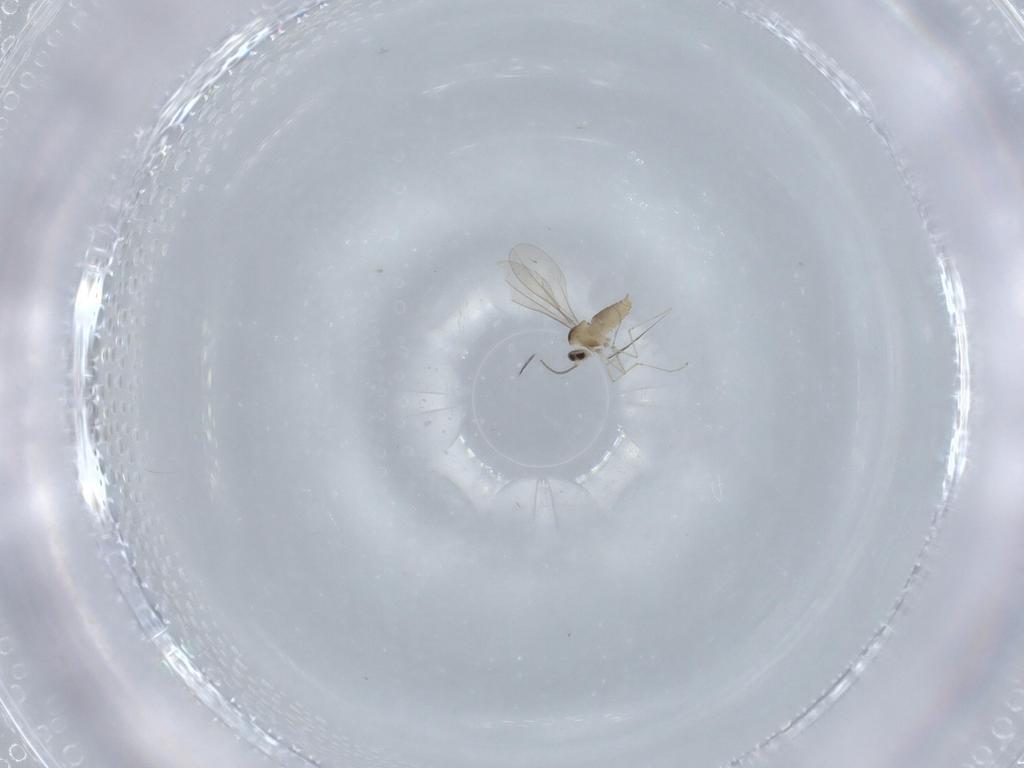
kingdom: Animalia
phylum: Arthropoda
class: Insecta
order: Diptera
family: Cecidomyiidae
